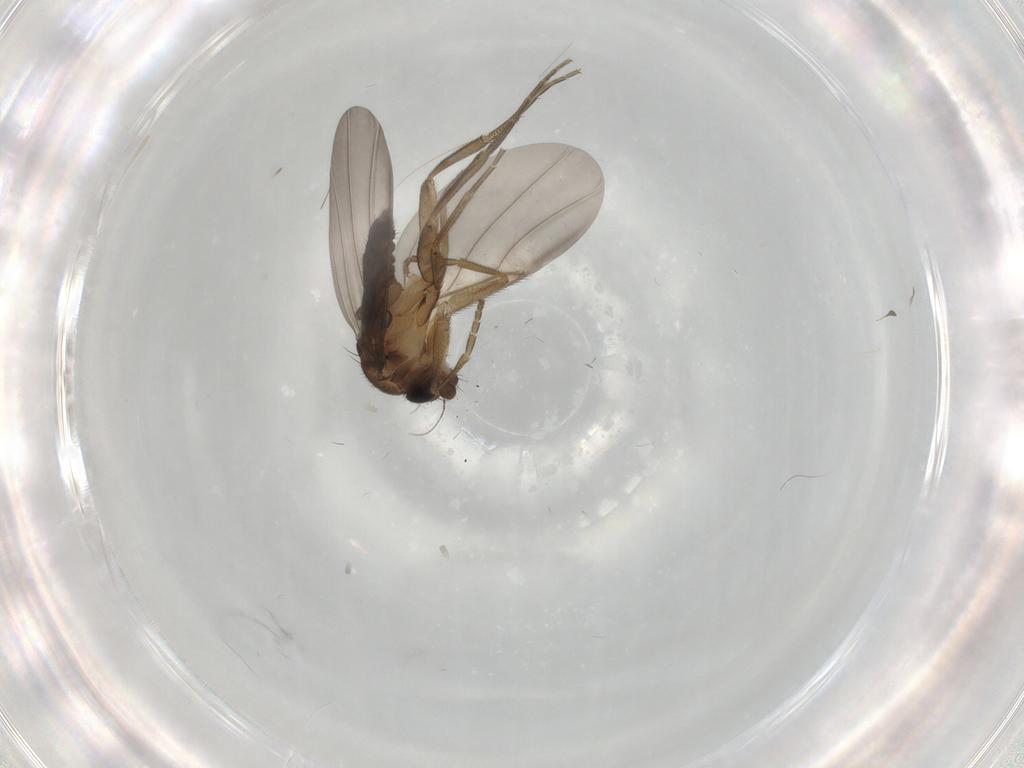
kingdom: Animalia
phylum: Arthropoda
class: Insecta
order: Diptera
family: Phoridae
